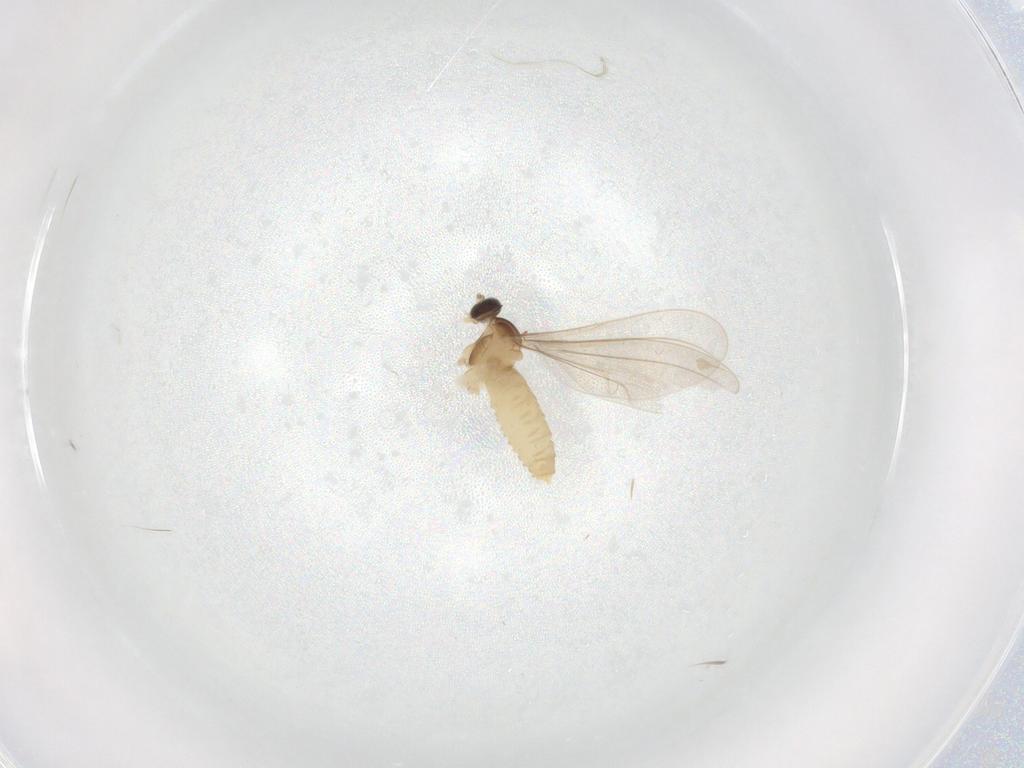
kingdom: Animalia
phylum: Arthropoda
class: Insecta
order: Diptera
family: Cecidomyiidae
